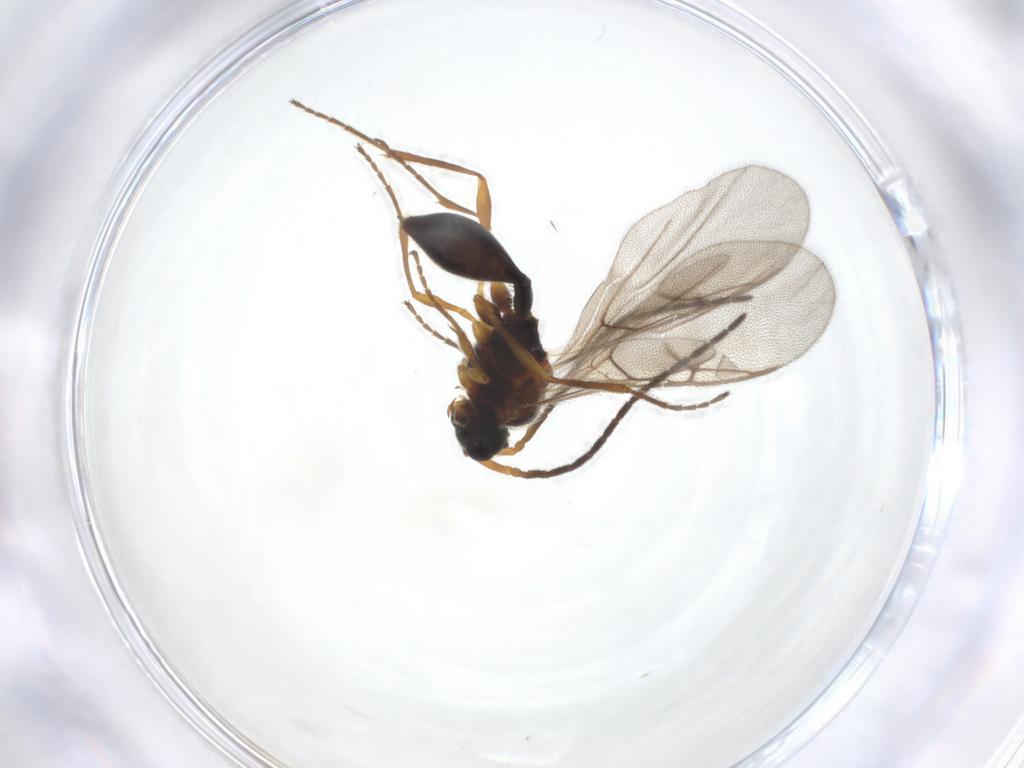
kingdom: Animalia
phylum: Arthropoda
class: Insecta
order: Hymenoptera
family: Diapriidae
